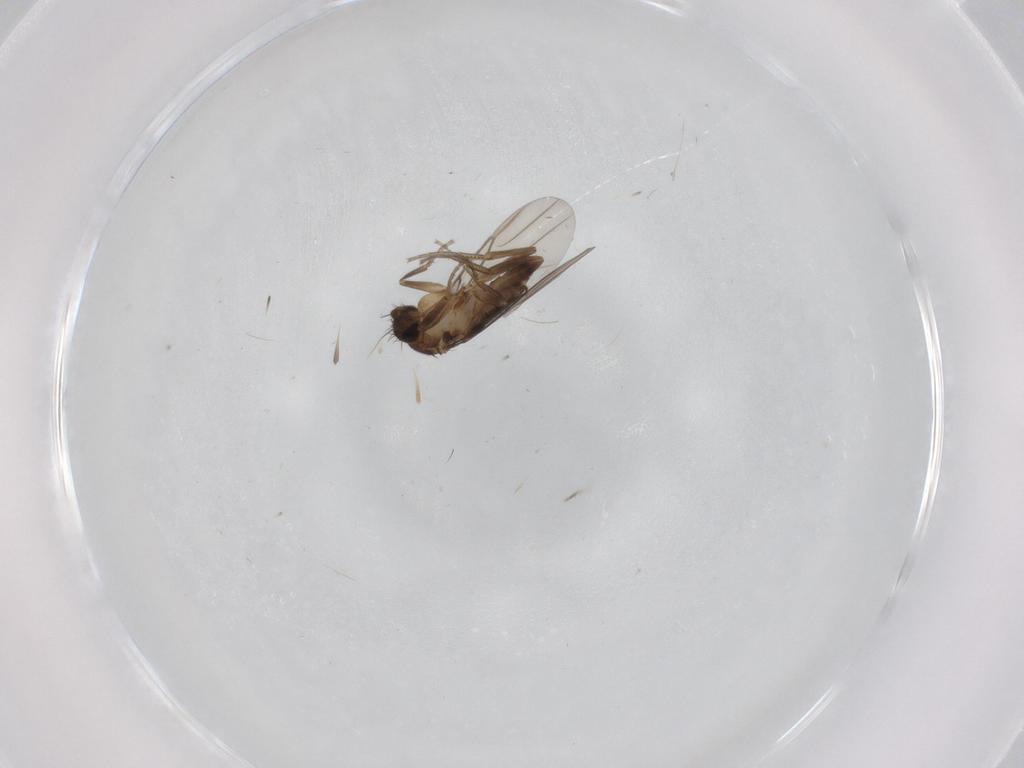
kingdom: Animalia
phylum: Arthropoda
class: Insecta
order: Diptera
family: Phoridae
